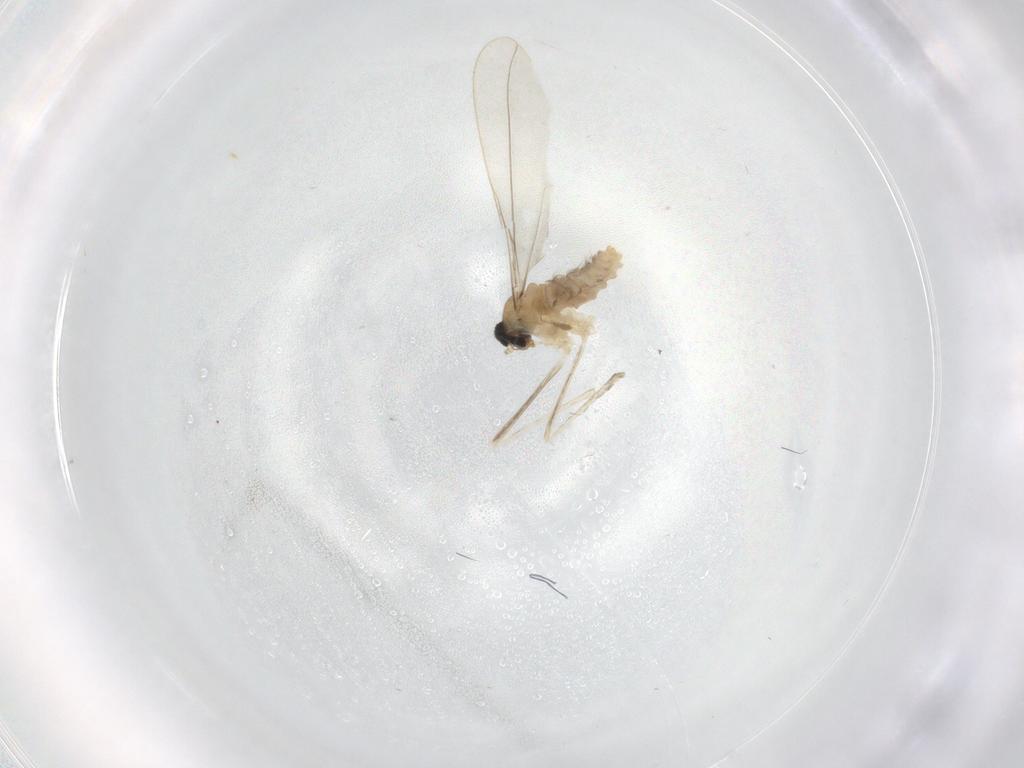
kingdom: Animalia
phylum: Arthropoda
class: Insecta
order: Diptera
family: Cecidomyiidae
